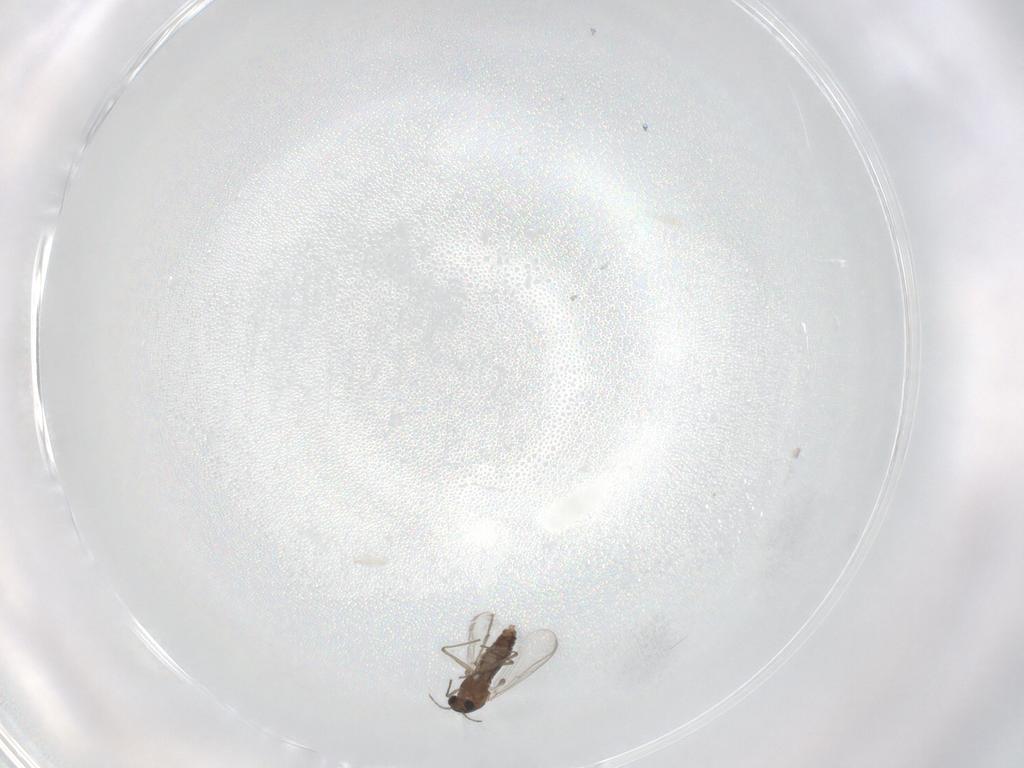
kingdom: Animalia
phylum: Arthropoda
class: Insecta
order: Diptera
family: Chironomidae
